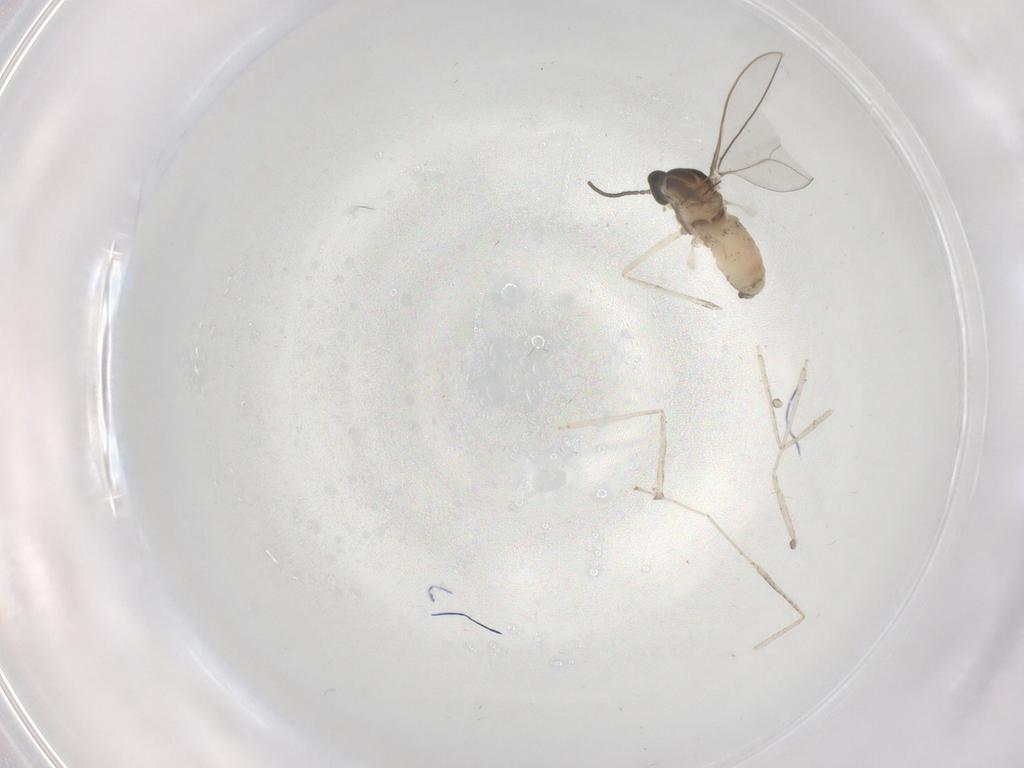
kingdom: Animalia
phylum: Arthropoda
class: Insecta
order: Diptera
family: Cecidomyiidae
